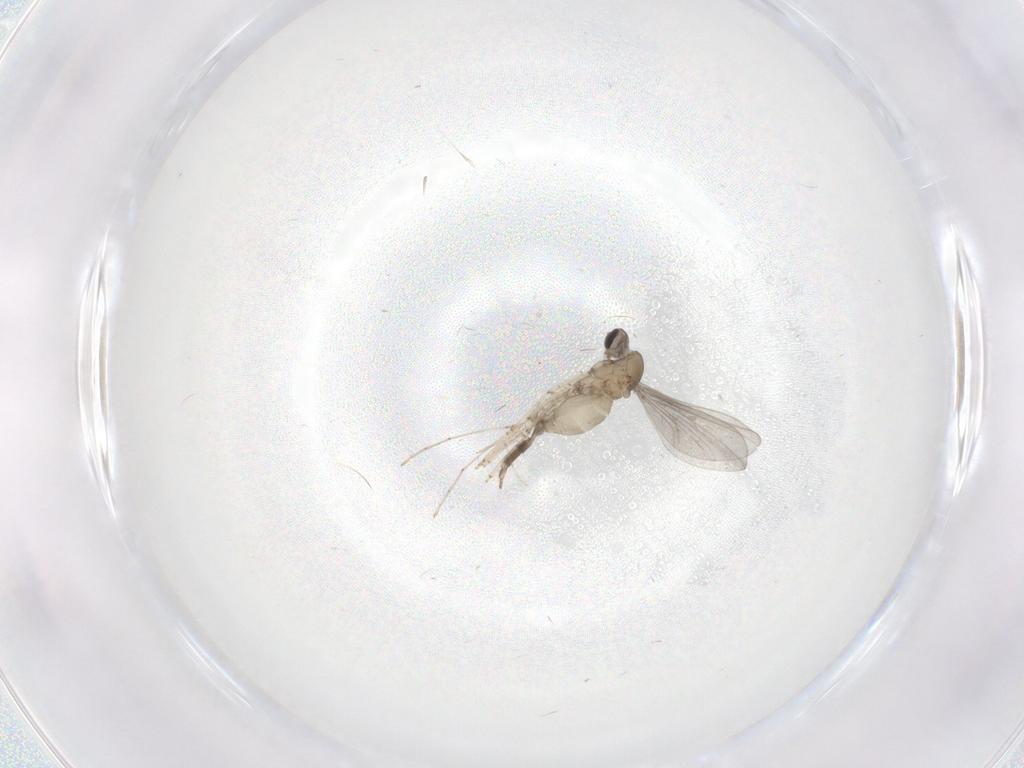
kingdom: Animalia
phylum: Arthropoda
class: Insecta
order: Diptera
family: Cecidomyiidae
